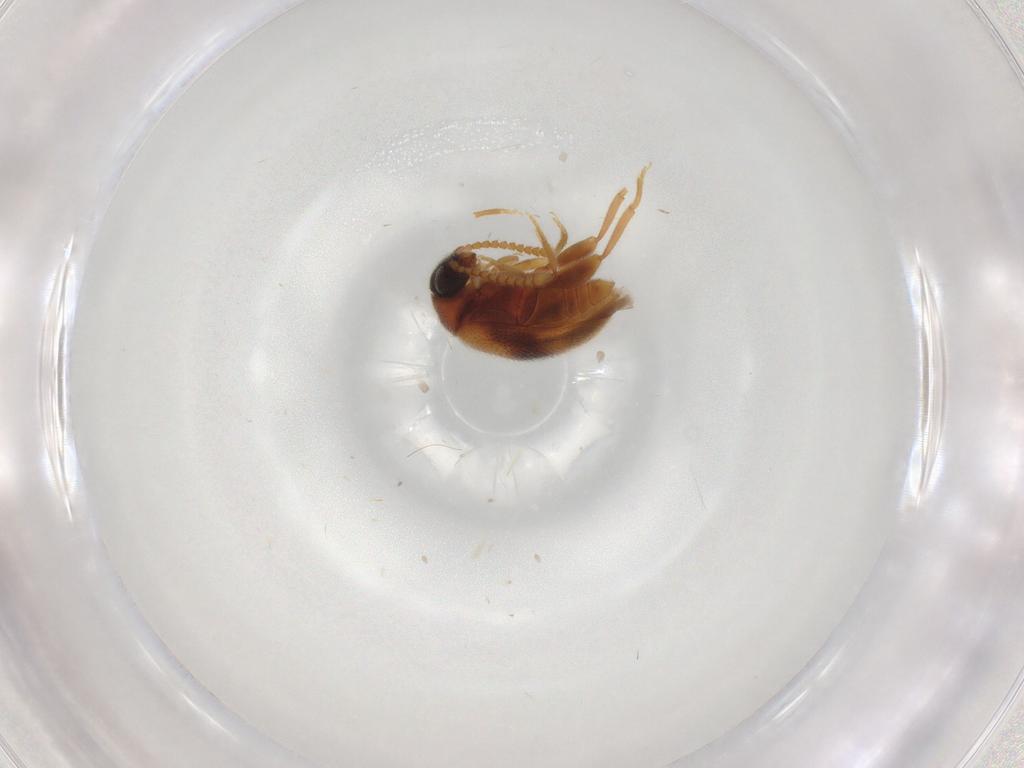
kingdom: Animalia
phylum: Arthropoda
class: Insecta
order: Coleoptera
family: Aderidae
